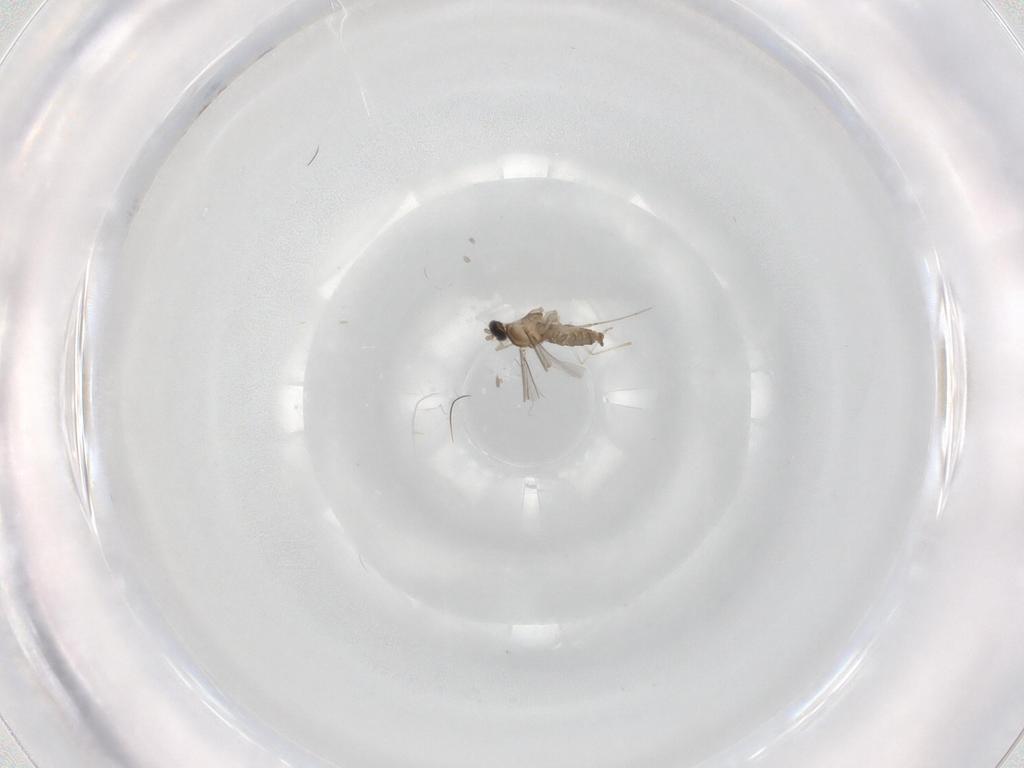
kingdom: Animalia
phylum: Arthropoda
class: Insecta
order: Diptera
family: Cecidomyiidae
